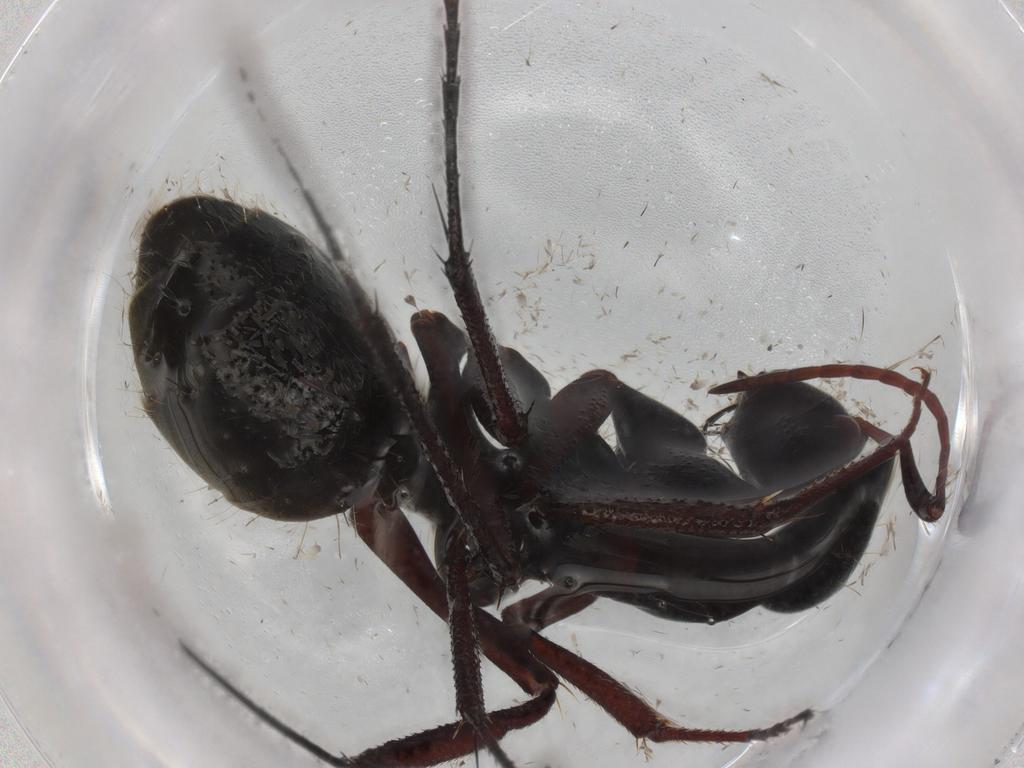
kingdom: Animalia
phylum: Arthropoda
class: Insecta
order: Hymenoptera
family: Formicidae
